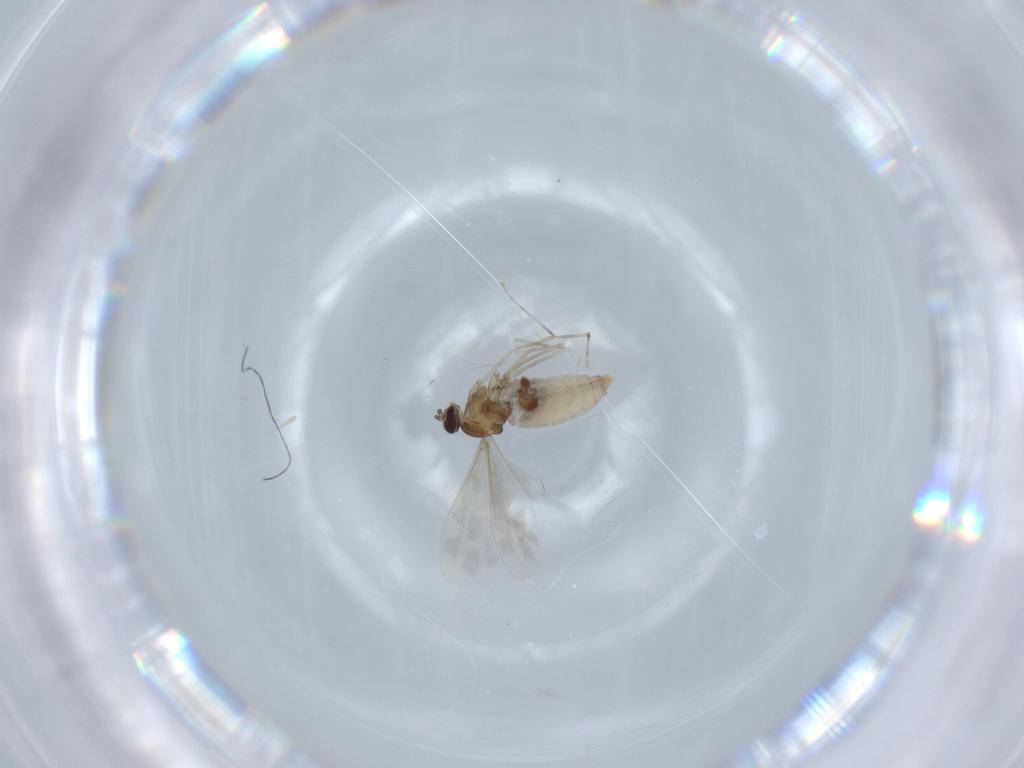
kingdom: Animalia
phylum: Arthropoda
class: Insecta
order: Diptera
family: Cecidomyiidae
